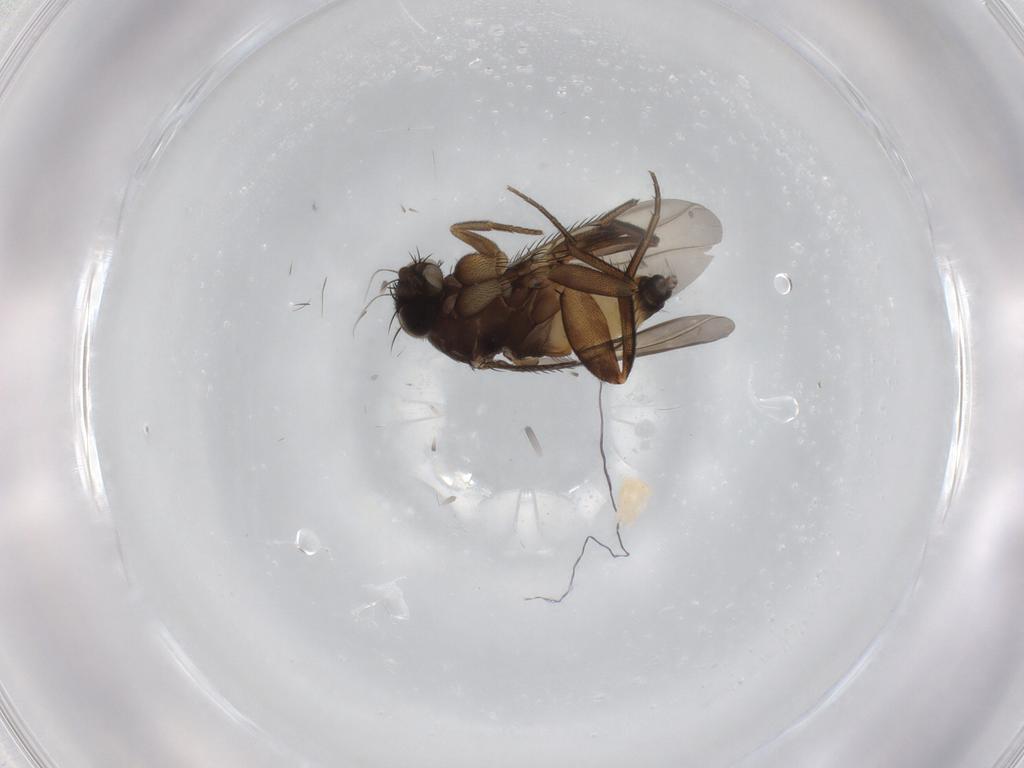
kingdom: Animalia
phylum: Arthropoda
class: Insecta
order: Diptera
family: Phoridae
